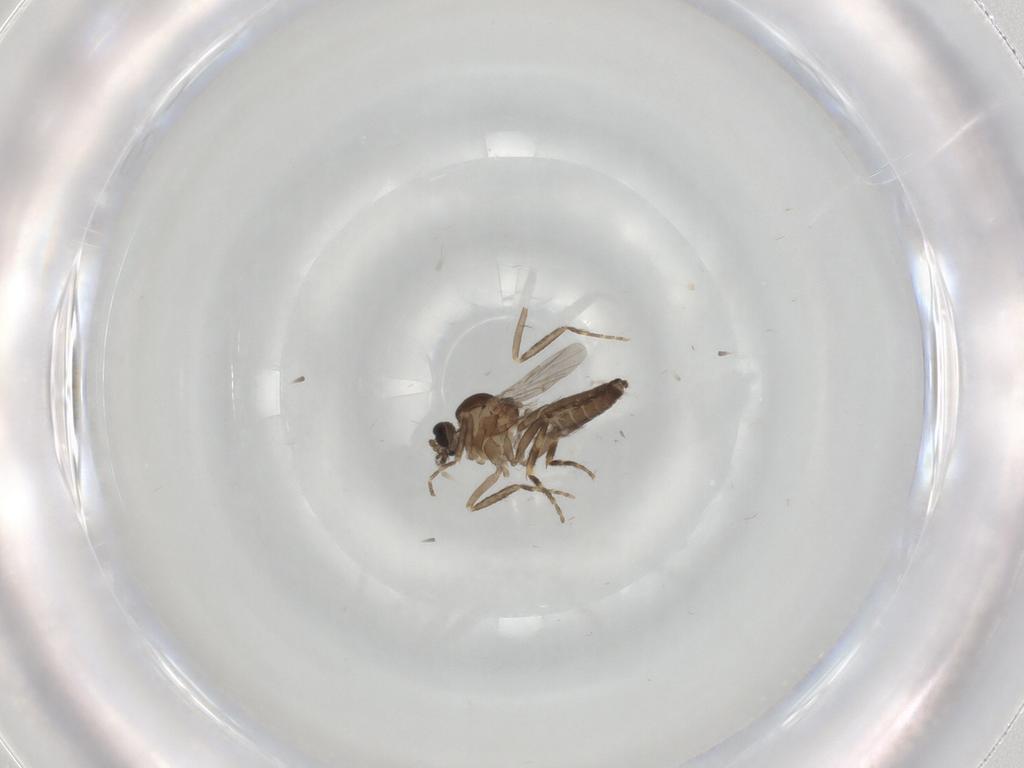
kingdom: Animalia
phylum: Arthropoda
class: Insecta
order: Diptera
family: Ceratopogonidae
